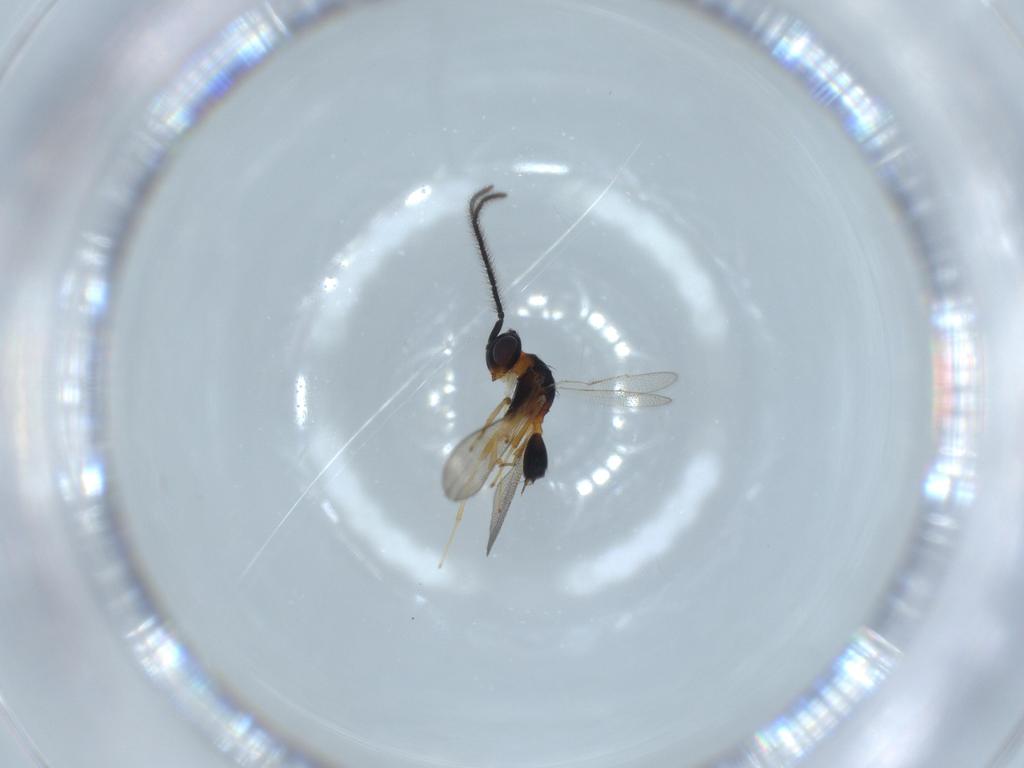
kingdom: Animalia
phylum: Arthropoda
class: Insecta
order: Hymenoptera
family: Diparidae
